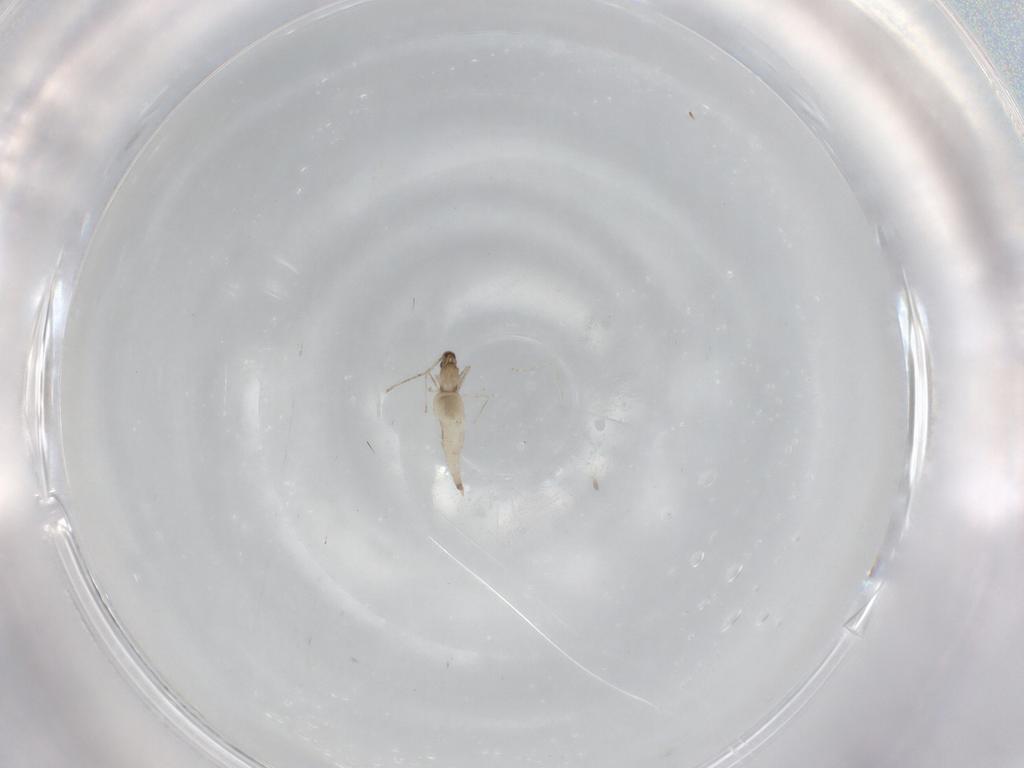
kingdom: Animalia
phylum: Arthropoda
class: Insecta
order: Diptera
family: Cecidomyiidae
